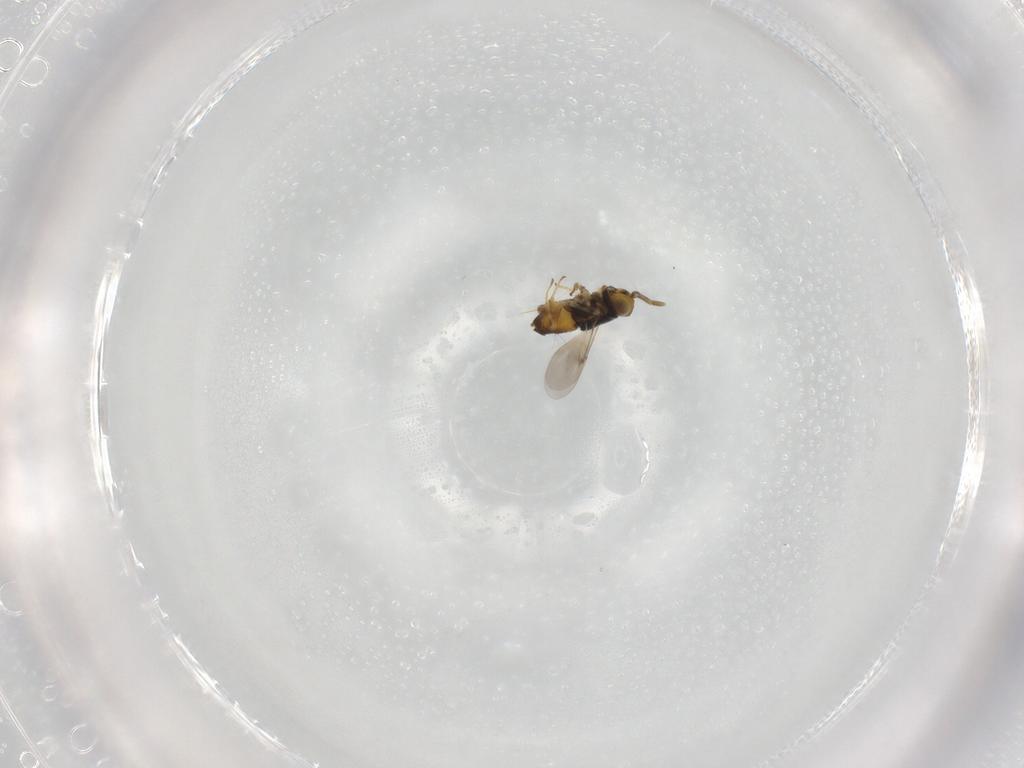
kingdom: Animalia
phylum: Arthropoda
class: Insecta
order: Hymenoptera
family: Encyrtidae
